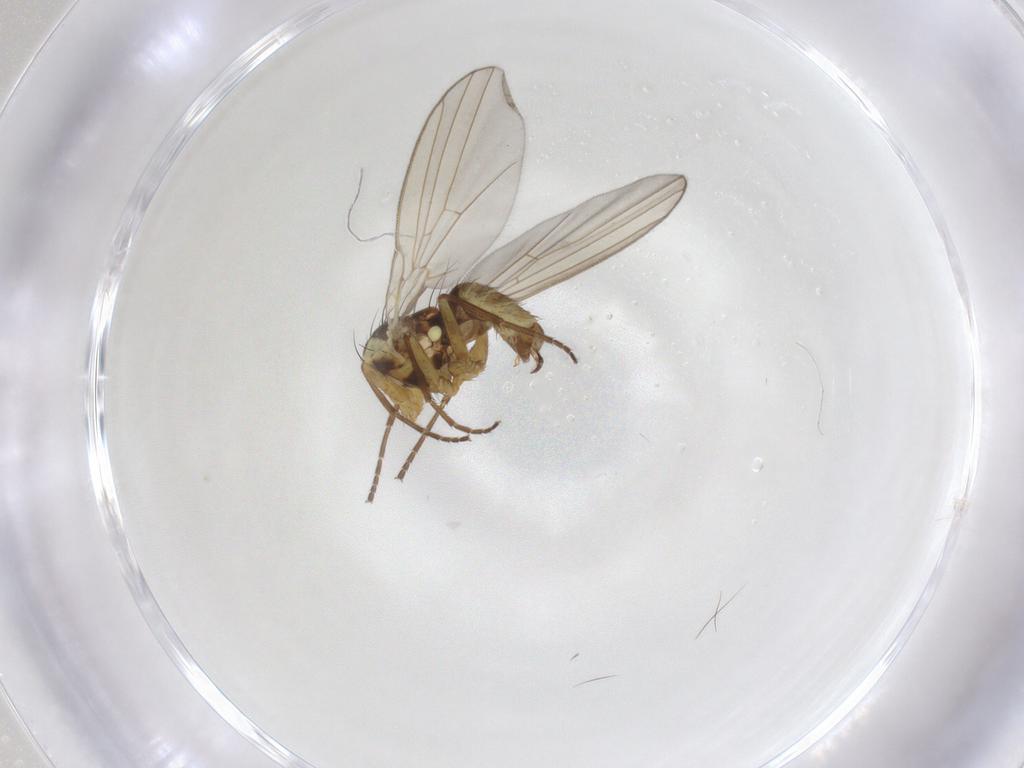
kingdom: Animalia
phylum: Arthropoda
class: Insecta
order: Diptera
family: Agromyzidae
